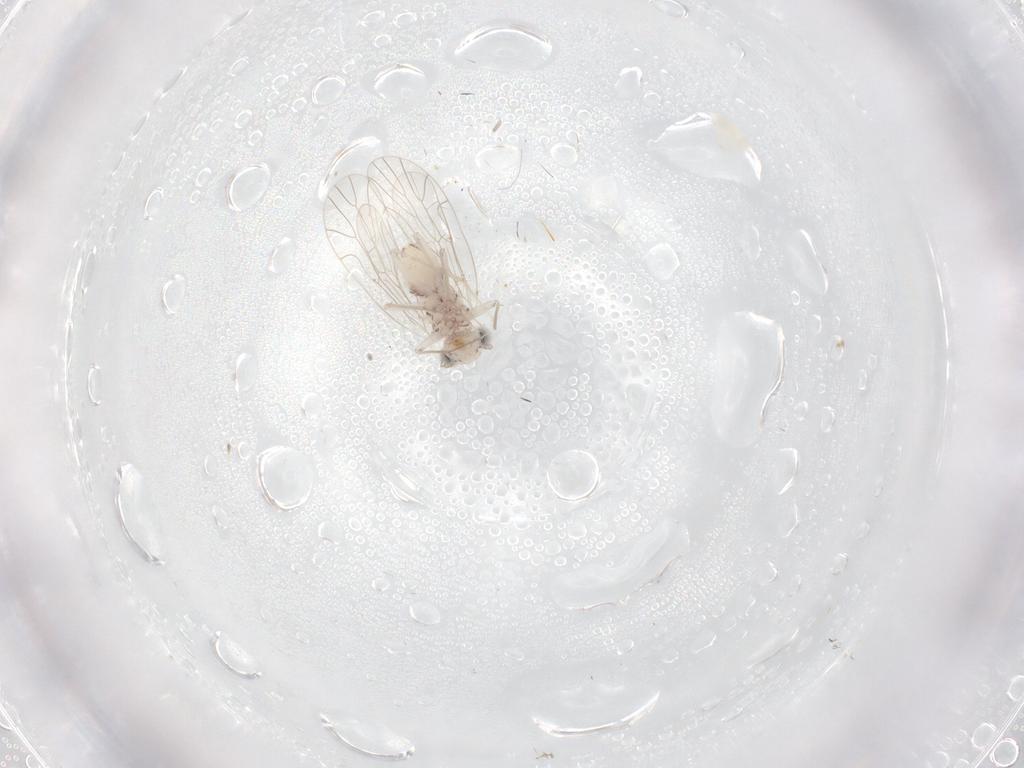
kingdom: Animalia
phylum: Arthropoda
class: Insecta
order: Psocodea
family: Amphientomidae
